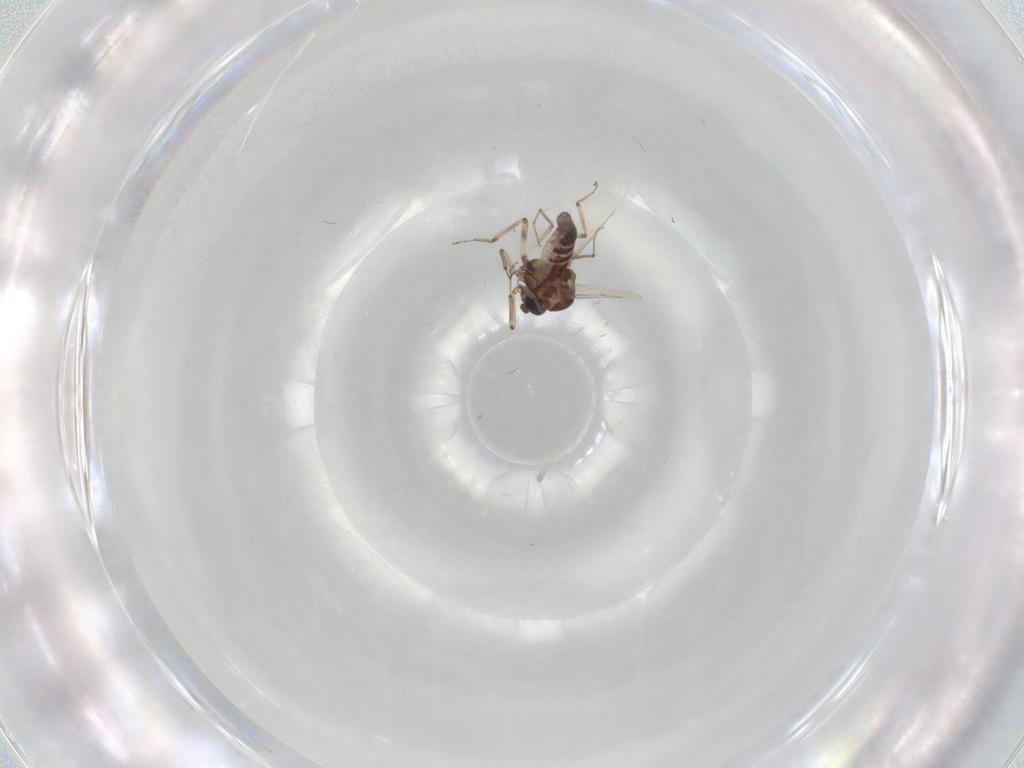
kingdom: Animalia
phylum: Arthropoda
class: Insecta
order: Diptera
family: Ceratopogonidae
